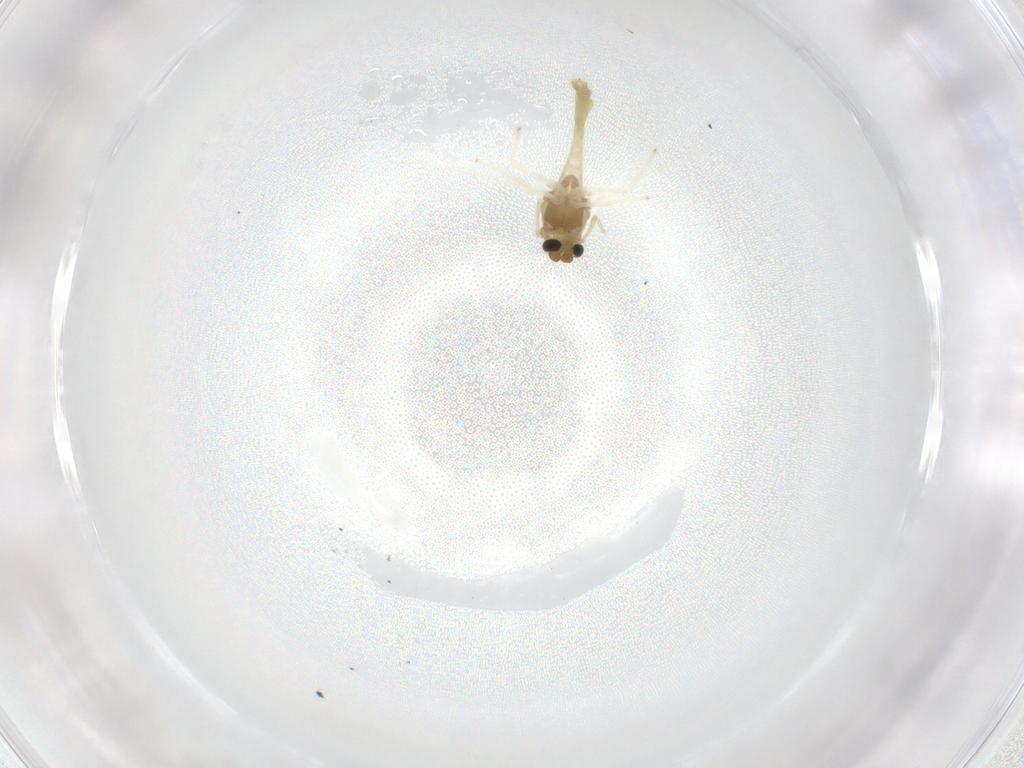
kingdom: Animalia
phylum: Arthropoda
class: Insecta
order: Diptera
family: Chironomidae
